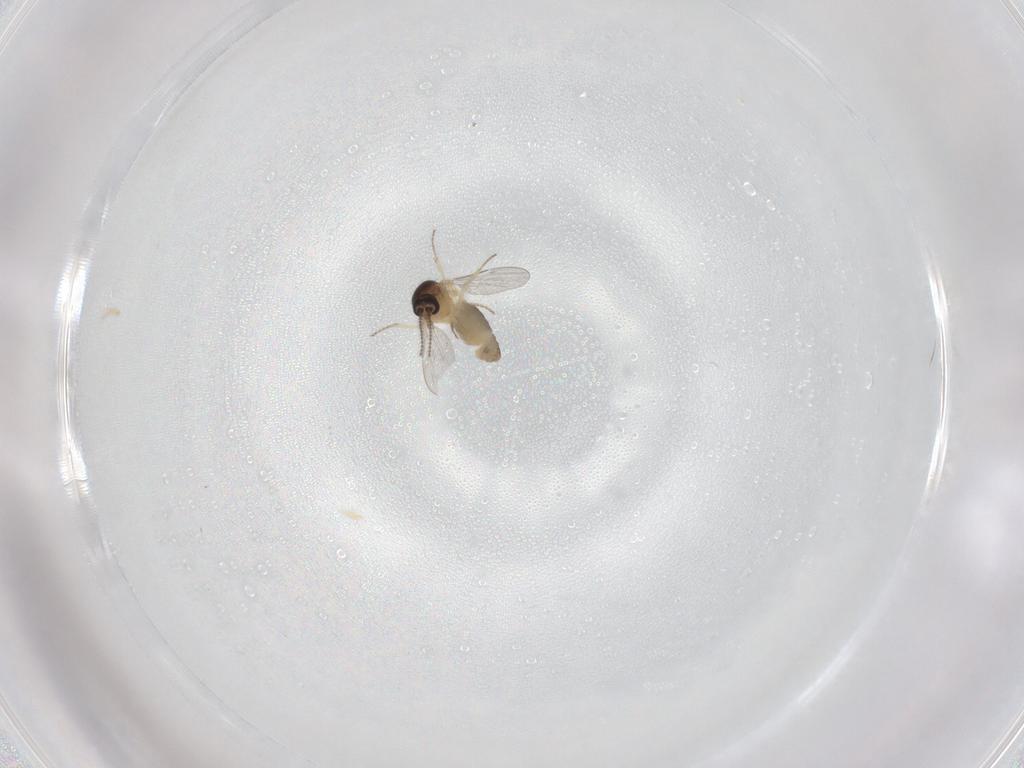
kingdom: Animalia
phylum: Arthropoda
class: Insecta
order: Diptera
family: Ceratopogonidae
